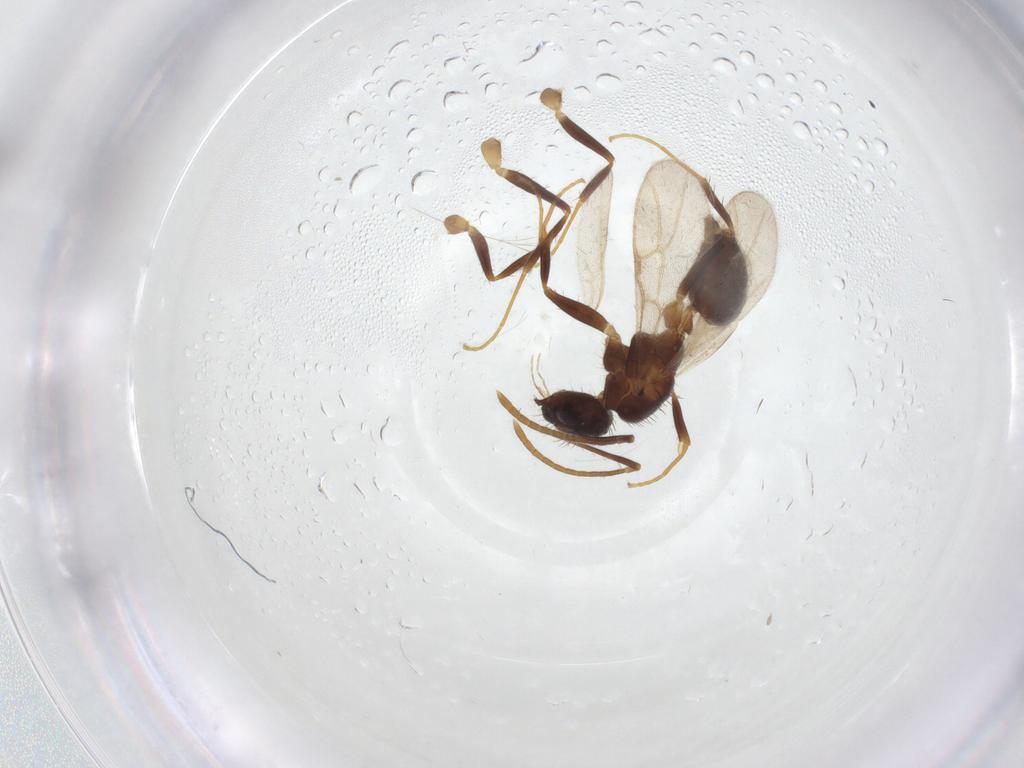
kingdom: Animalia
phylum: Arthropoda
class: Insecta
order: Hymenoptera
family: Formicidae
